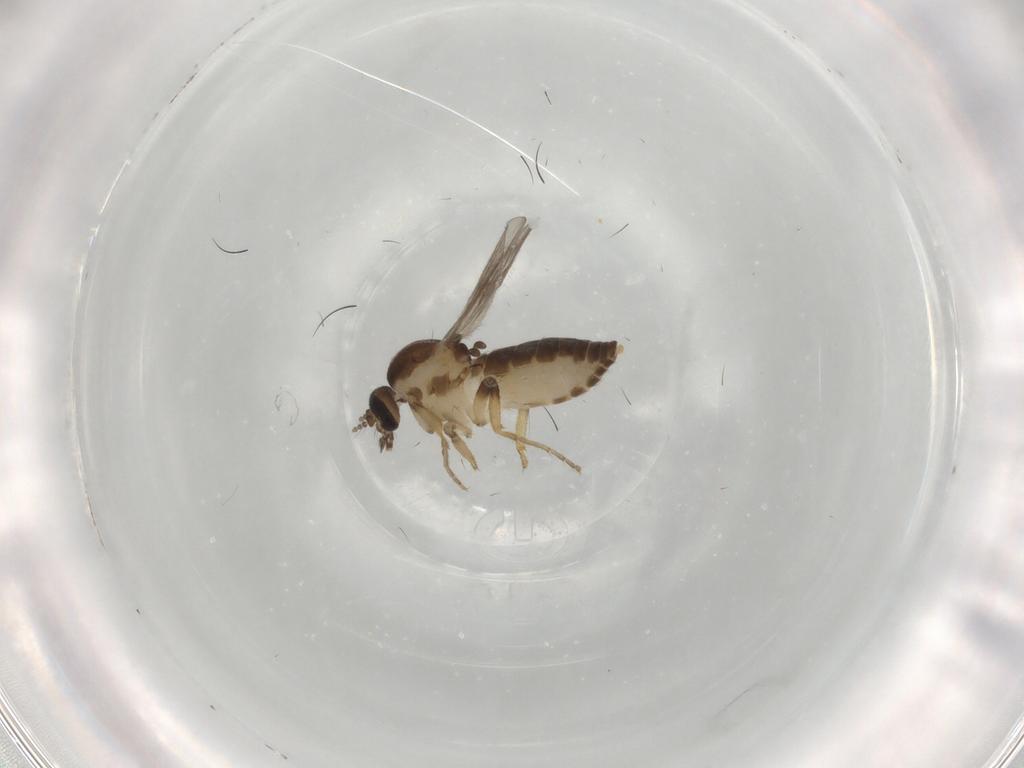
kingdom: Animalia
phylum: Arthropoda
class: Insecta
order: Diptera
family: Ceratopogonidae
